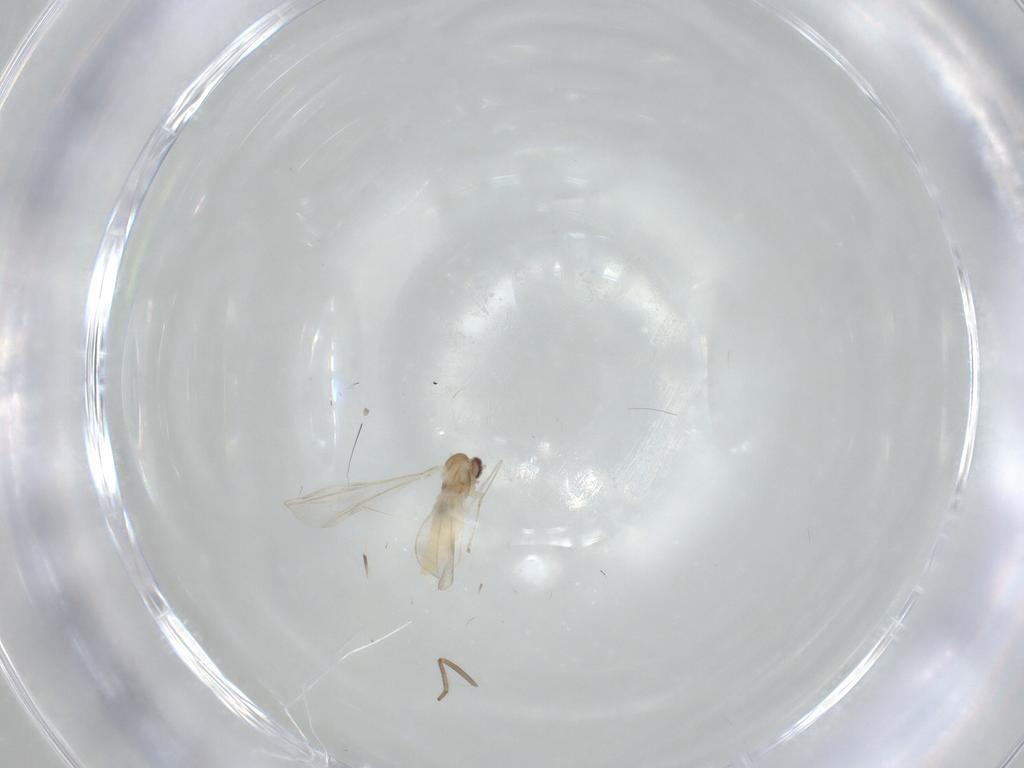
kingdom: Animalia
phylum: Arthropoda
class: Insecta
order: Diptera
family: Cecidomyiidae
